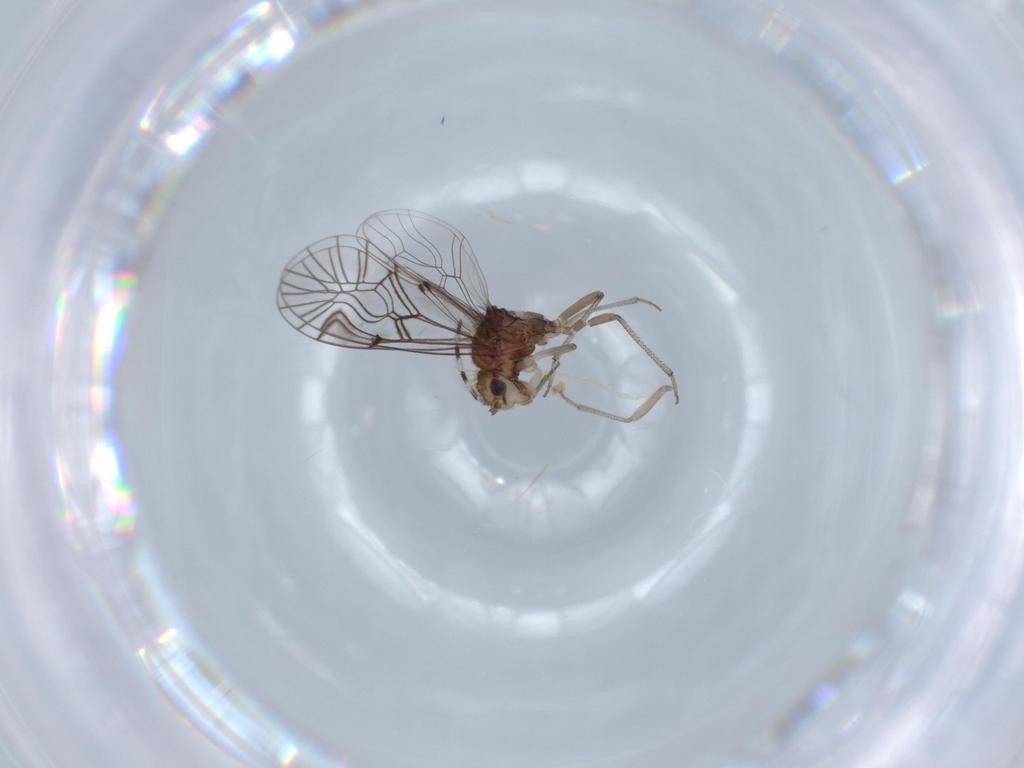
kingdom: Animalia
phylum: Arthropoda
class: Insecta
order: Psocodea
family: Amphipsocidae
